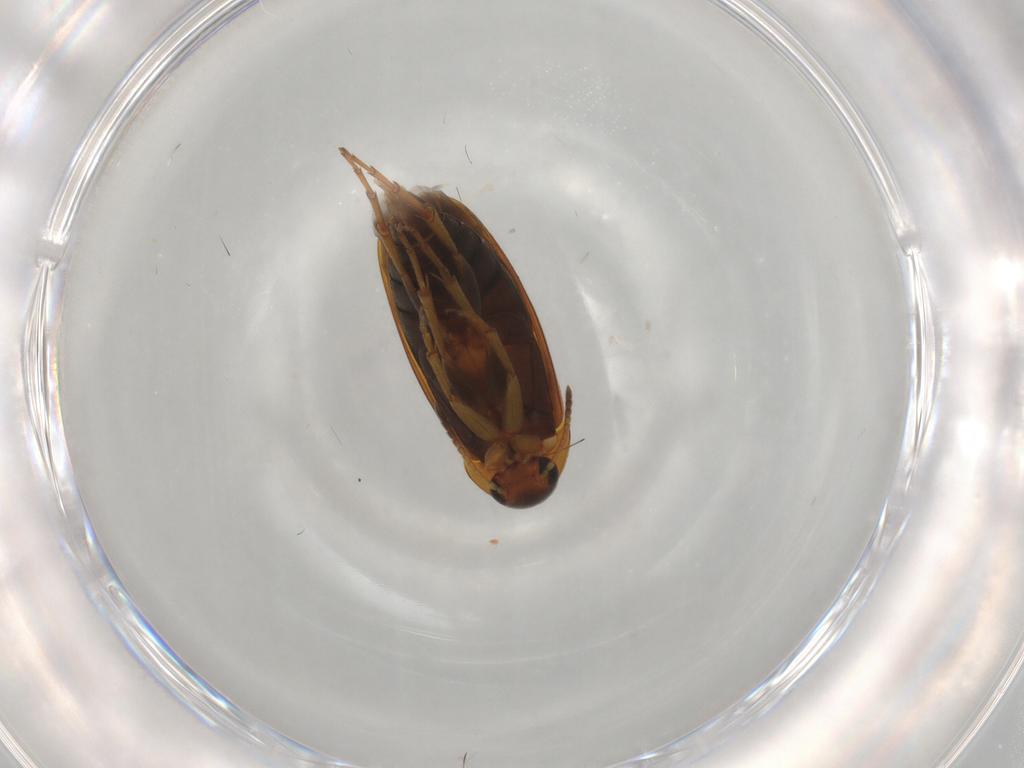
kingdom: Animalia
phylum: Arthropoda
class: Insecta
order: Coleoptera
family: Scraptiidae
